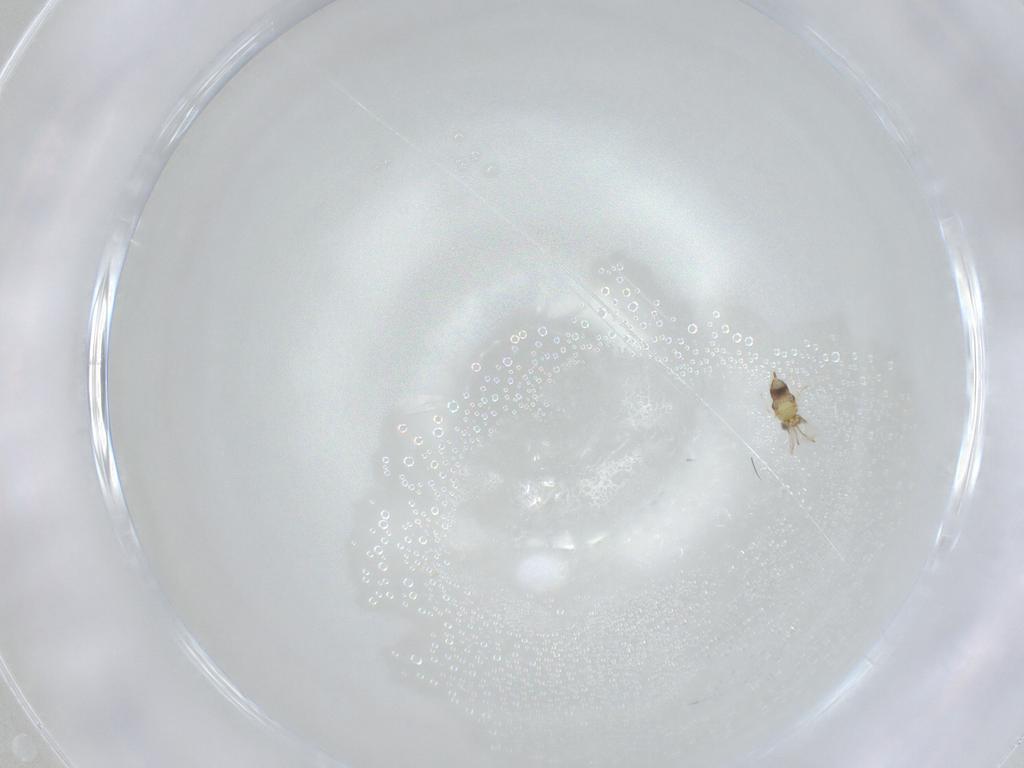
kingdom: Animalia
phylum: Arthropoda
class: Insecta
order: Hymenoptera
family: Aphelinidae
